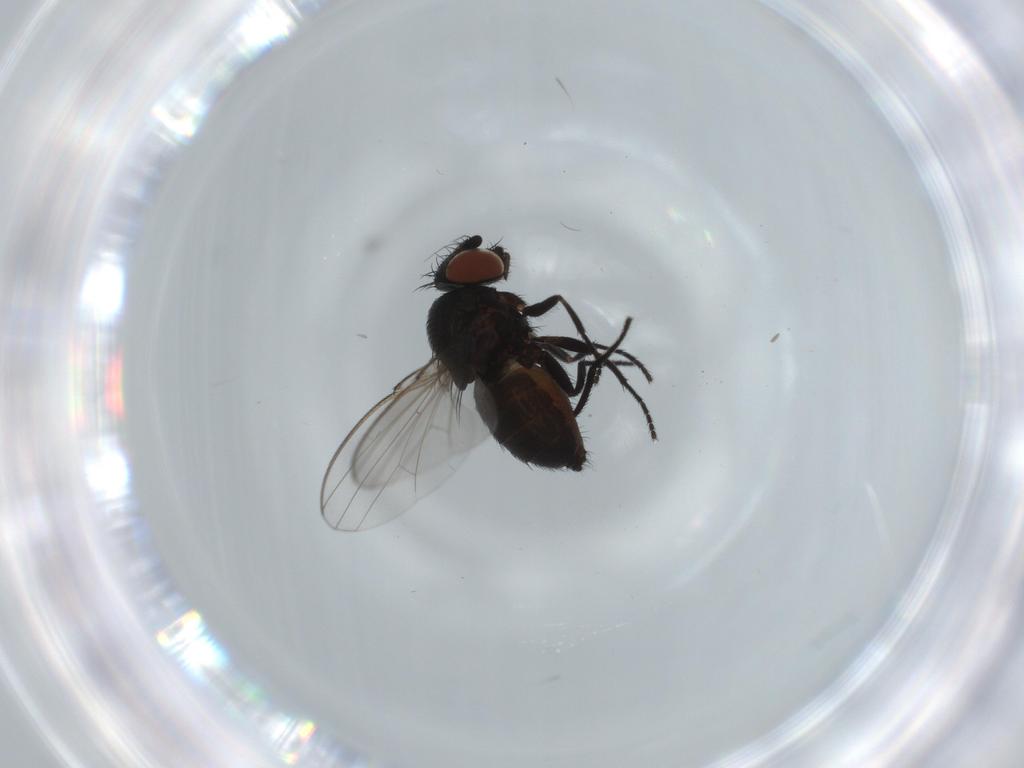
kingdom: Animalia
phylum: Arthropoda
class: Insecta
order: Diptera
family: Milichiidae
